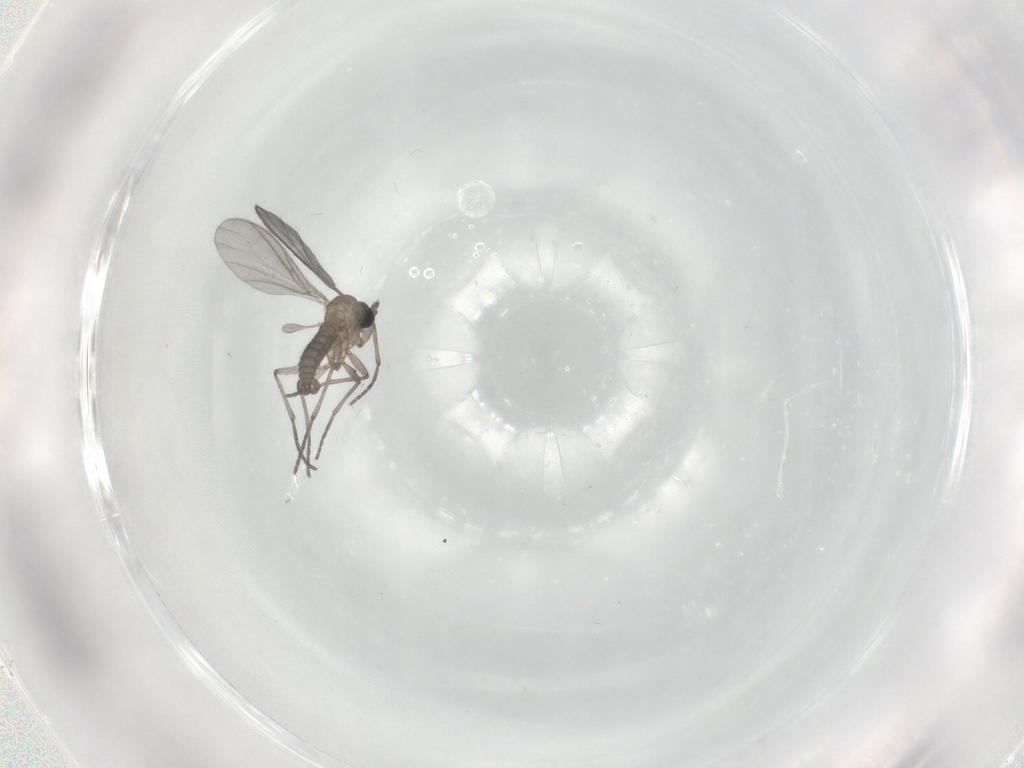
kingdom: Animalia
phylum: Arthropoda
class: Insecta
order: Diptera
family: Sciaridae
